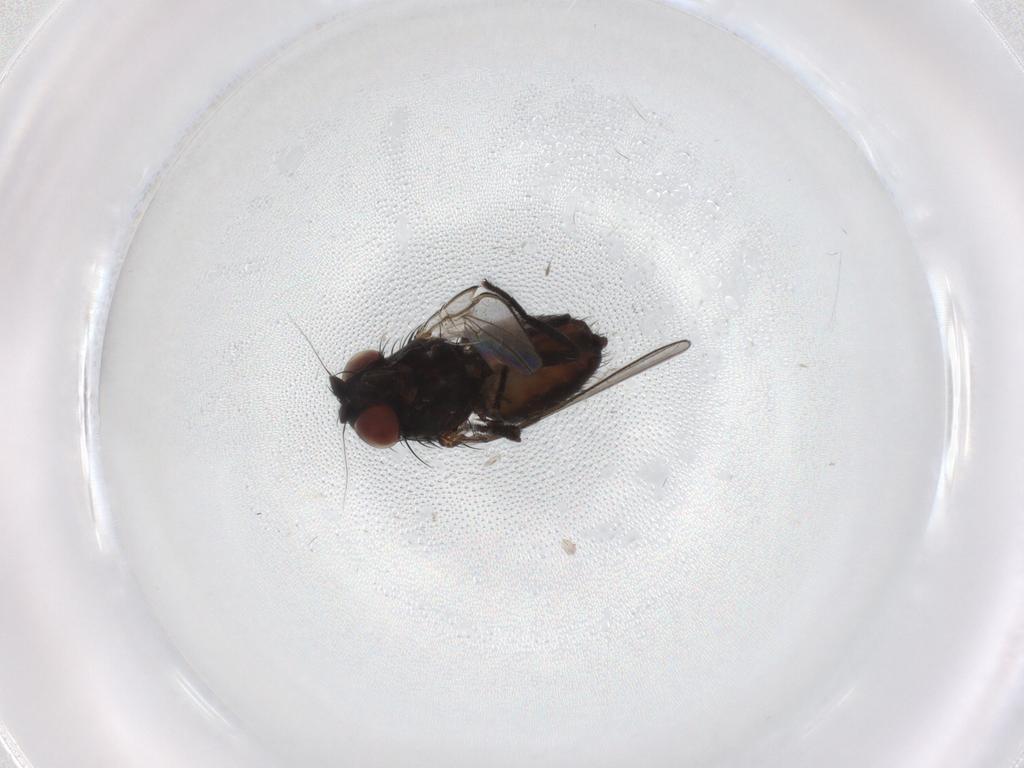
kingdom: Animalia
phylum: Arthropoda
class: Insecta
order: Diptera
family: Milichiidae
